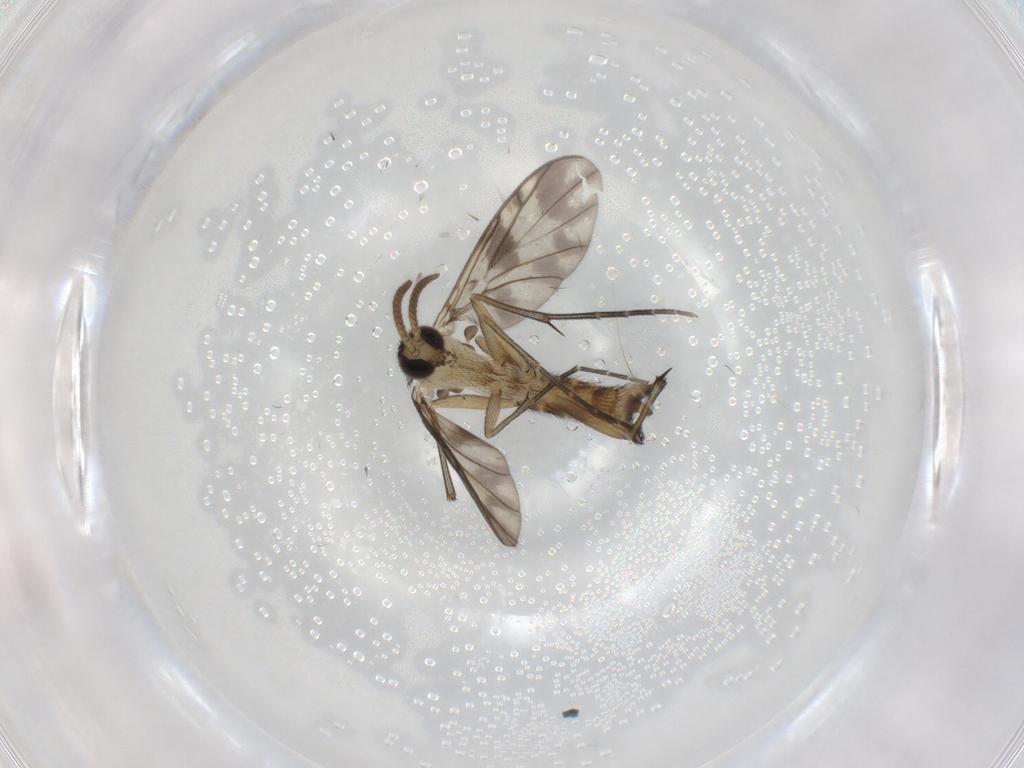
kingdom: Animalia
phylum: Arthropoda
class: Insecta
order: Diptera
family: Keroplatidae
